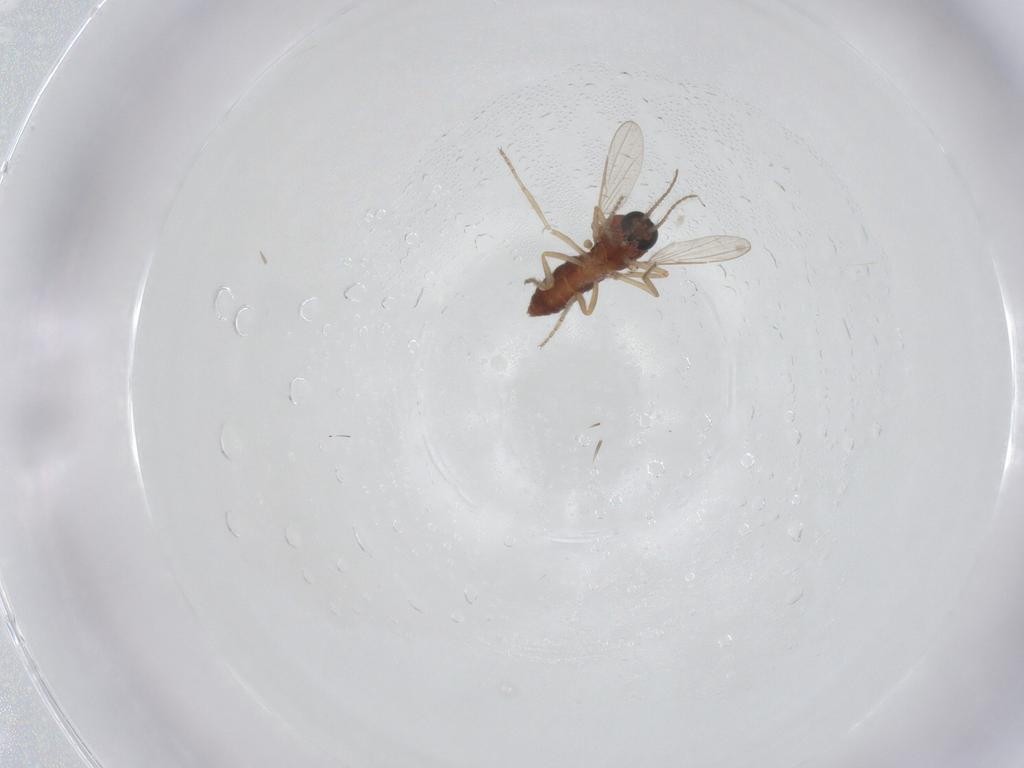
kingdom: Animalia
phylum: Arthropoda
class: Insecta
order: Diptera
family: Ceratopogonidae
